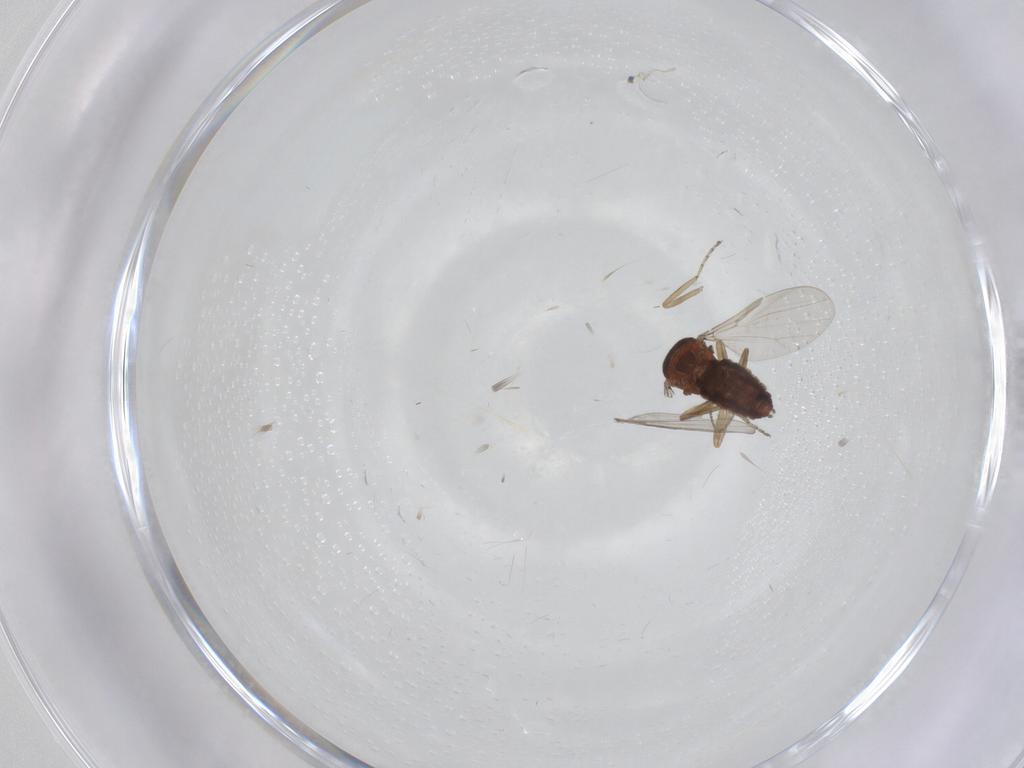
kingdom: Animalia
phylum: Arthropoda
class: Insecta
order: Diptera
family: Ceratopogonidae
